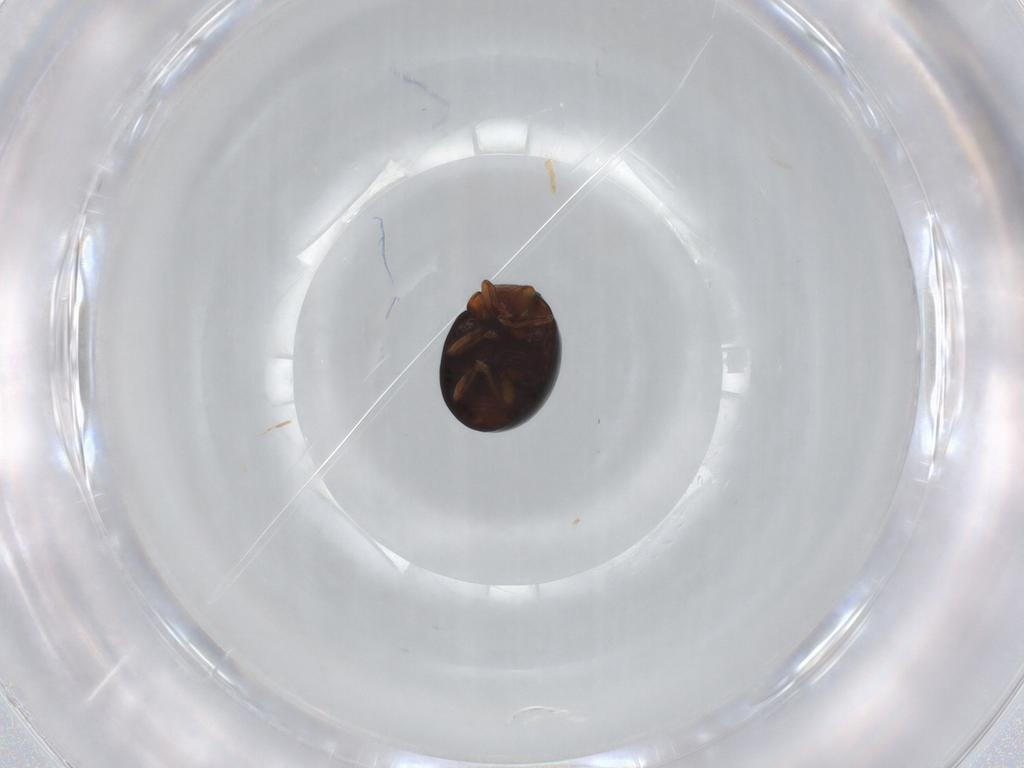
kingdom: Animalia
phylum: Arthropoda
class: Insecta
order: Coleoptera
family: Coccinellidae
